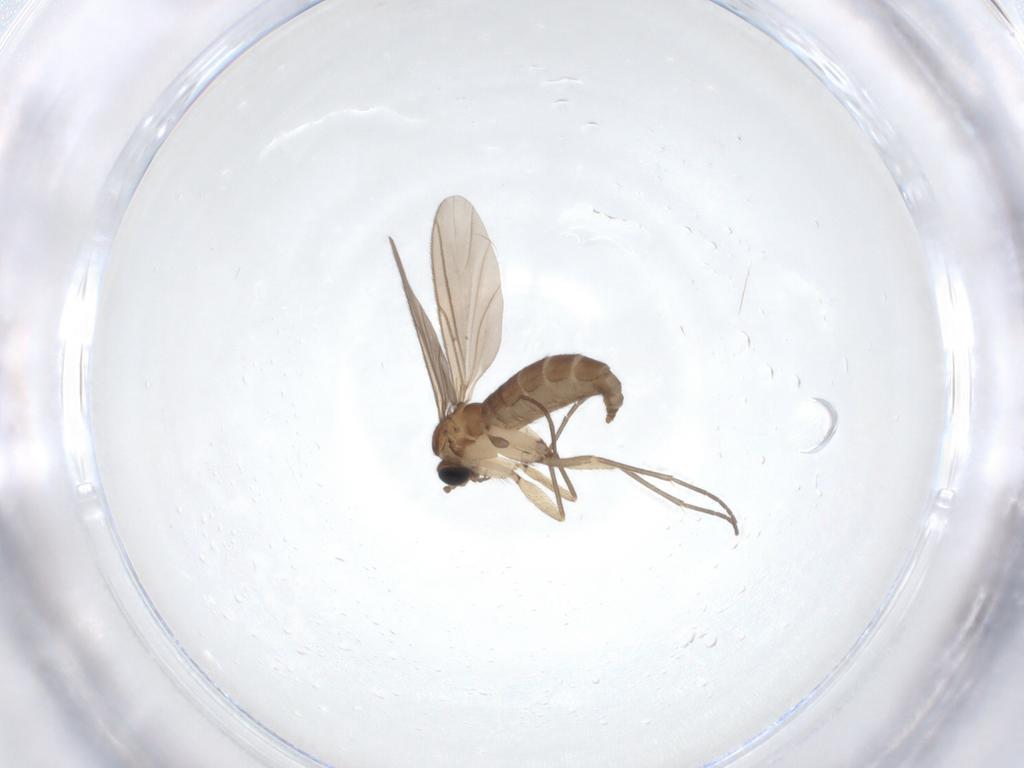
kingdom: Animalia
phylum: Arthropoda
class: Insecta
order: Diptera
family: Sciaridae
